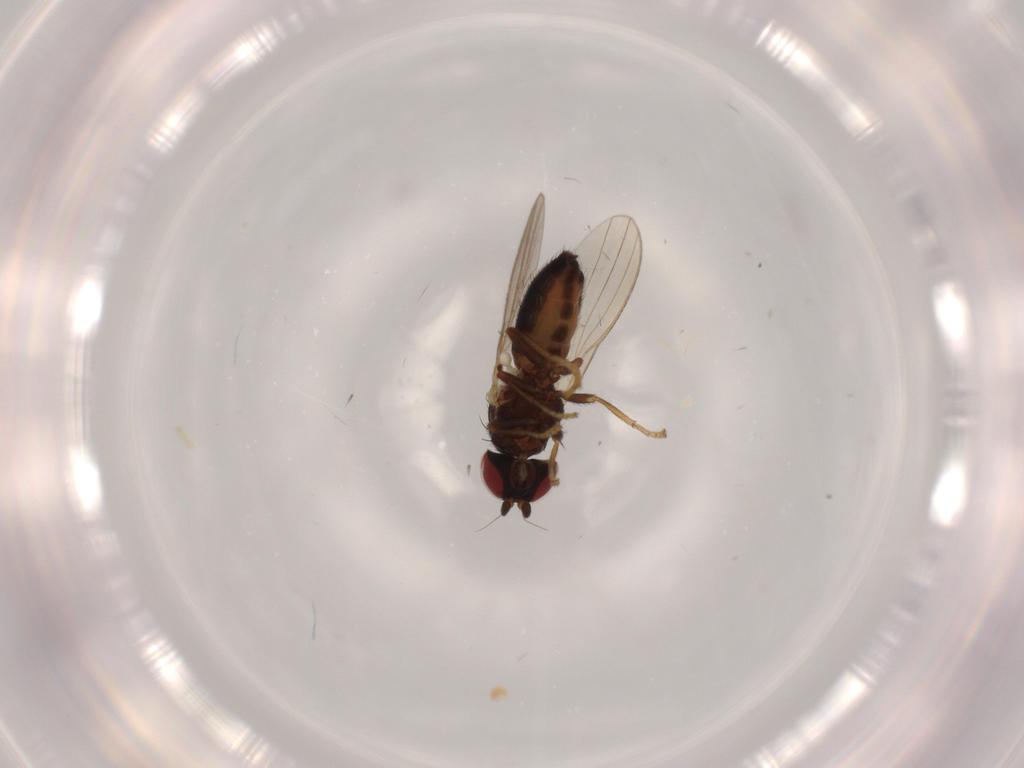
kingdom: Animalia
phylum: Arthropoda
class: Insecta
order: Diptera
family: Chamaemyiidae
